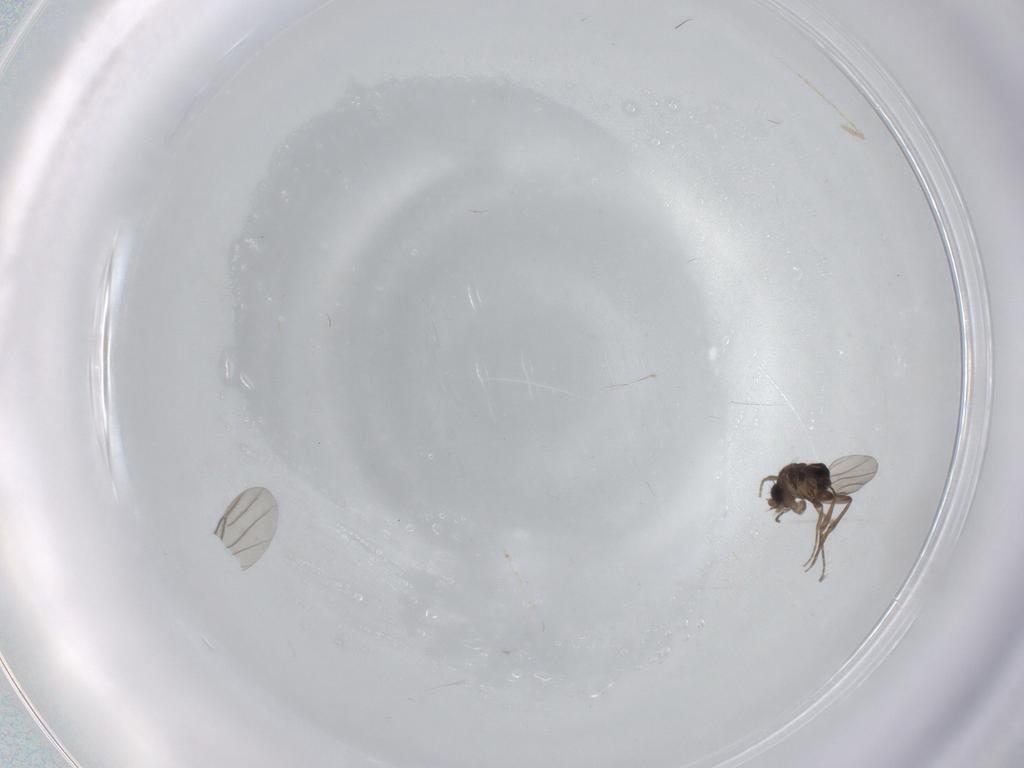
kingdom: Animalia
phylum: Arthropoda
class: Insecta
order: Diptera
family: Cecidomyiidae
